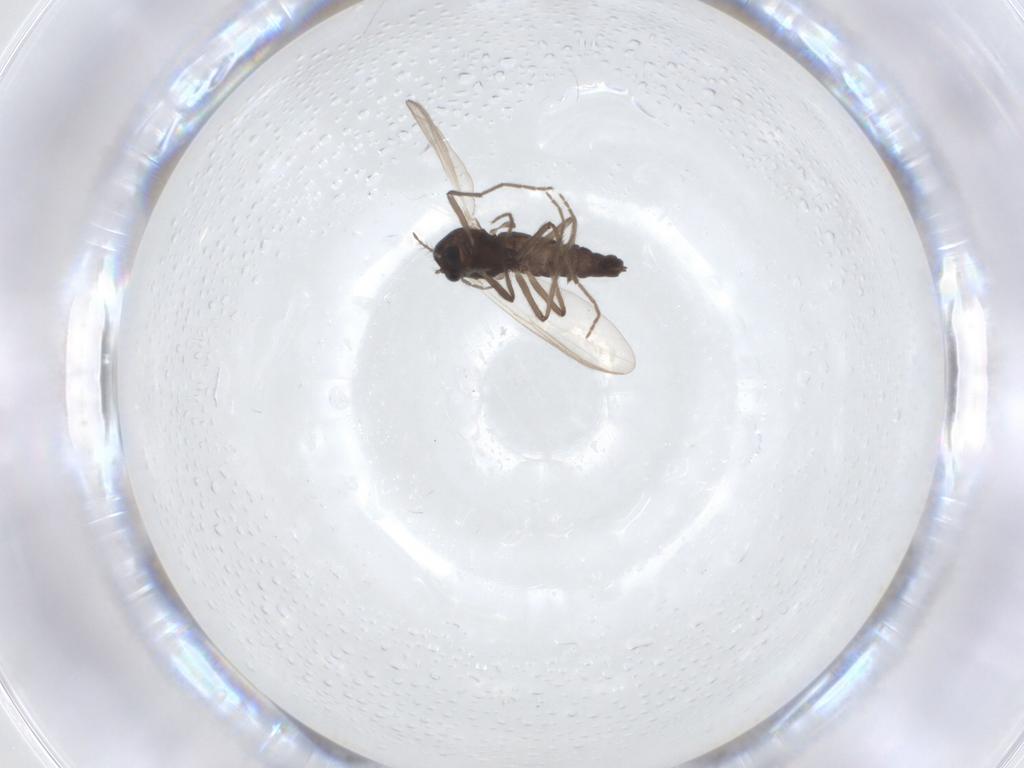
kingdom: Animalia
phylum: Arthropoda
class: Insecta
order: Diptera
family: Chironomidae
